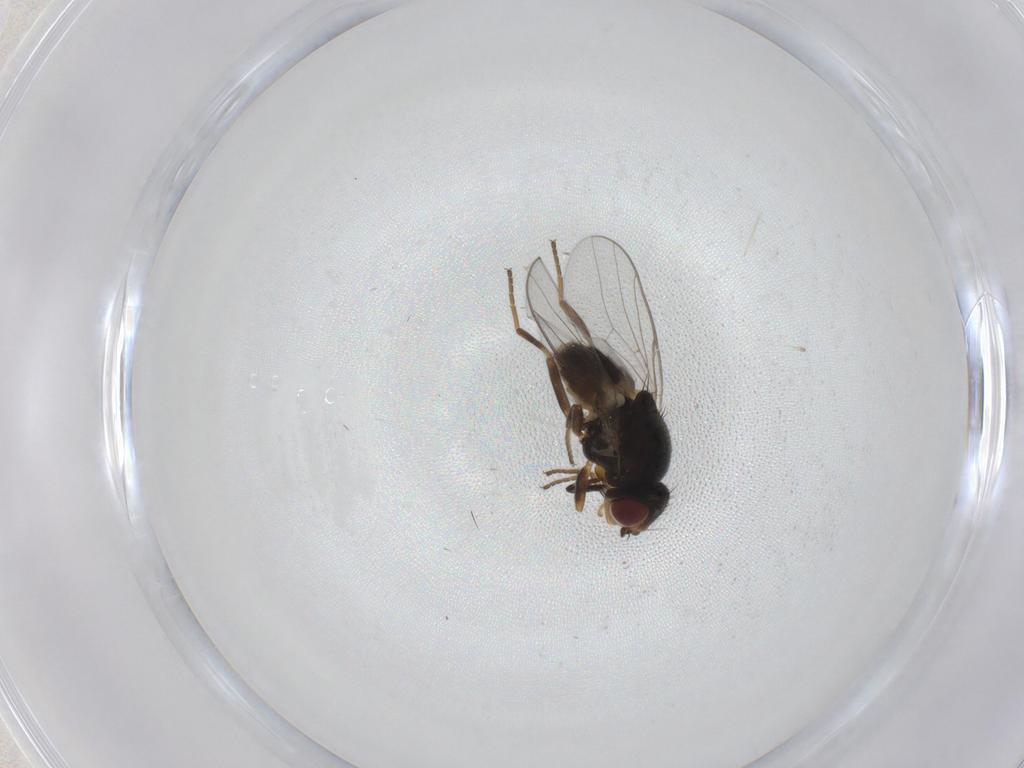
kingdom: Animalia
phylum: Arthropoda
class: Insecta
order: Diptera
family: Chloropidae
